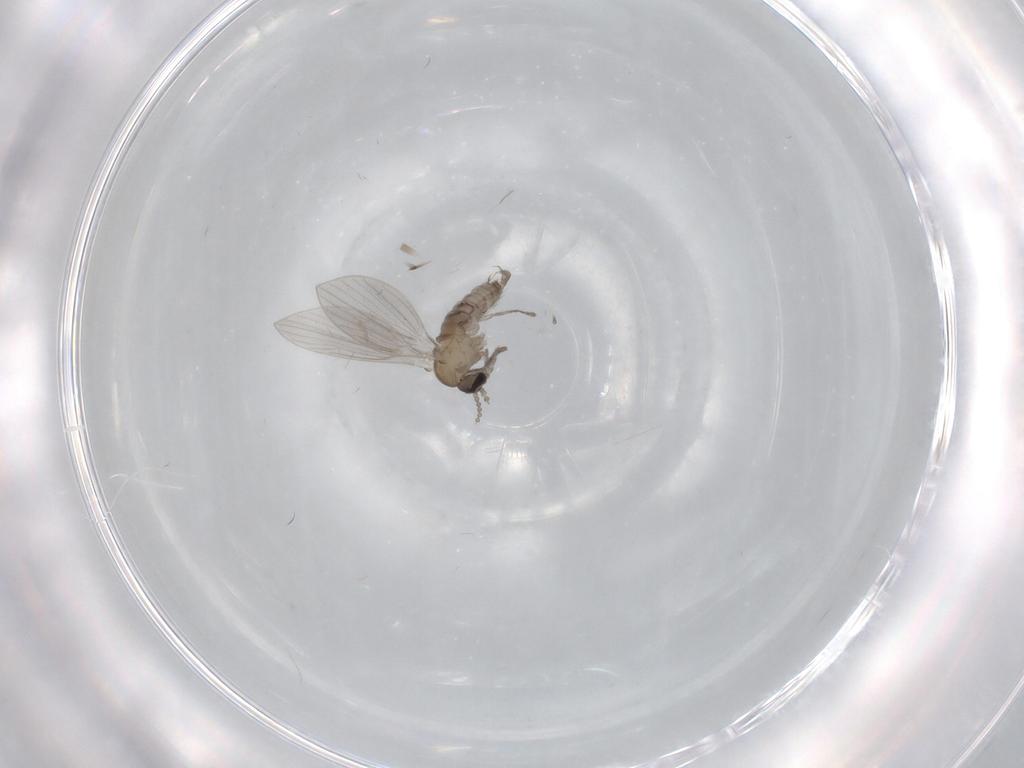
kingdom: Animalia
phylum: Arthropoda
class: Insecta
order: Diptera
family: Psychodidae
